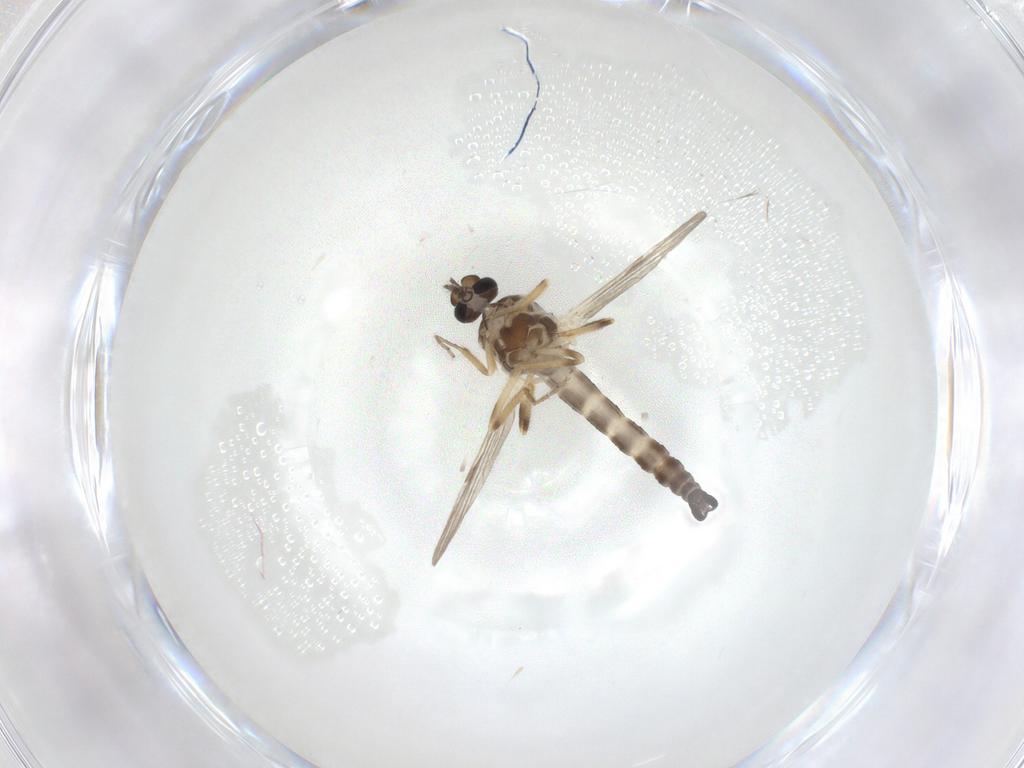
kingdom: Animalia
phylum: Arthropoda
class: Insecta
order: Diptera
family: Ceratopogonidae
